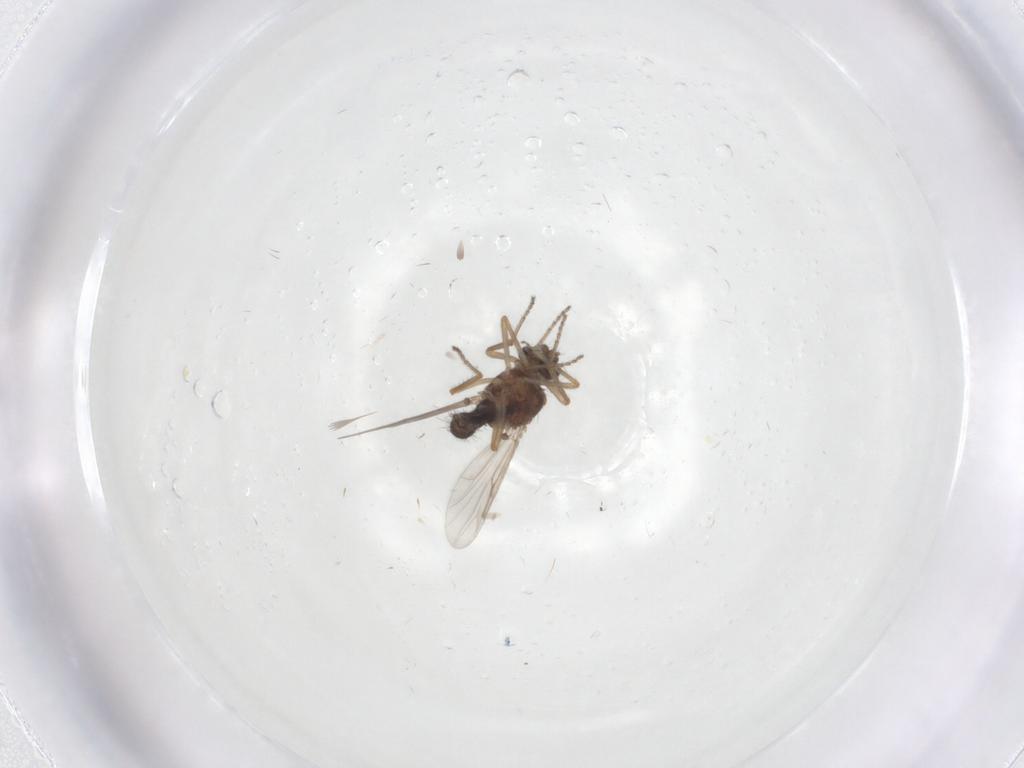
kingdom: Animalia
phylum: Arthropoda
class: Insecta
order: Diptera
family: Ceratopogonidae
